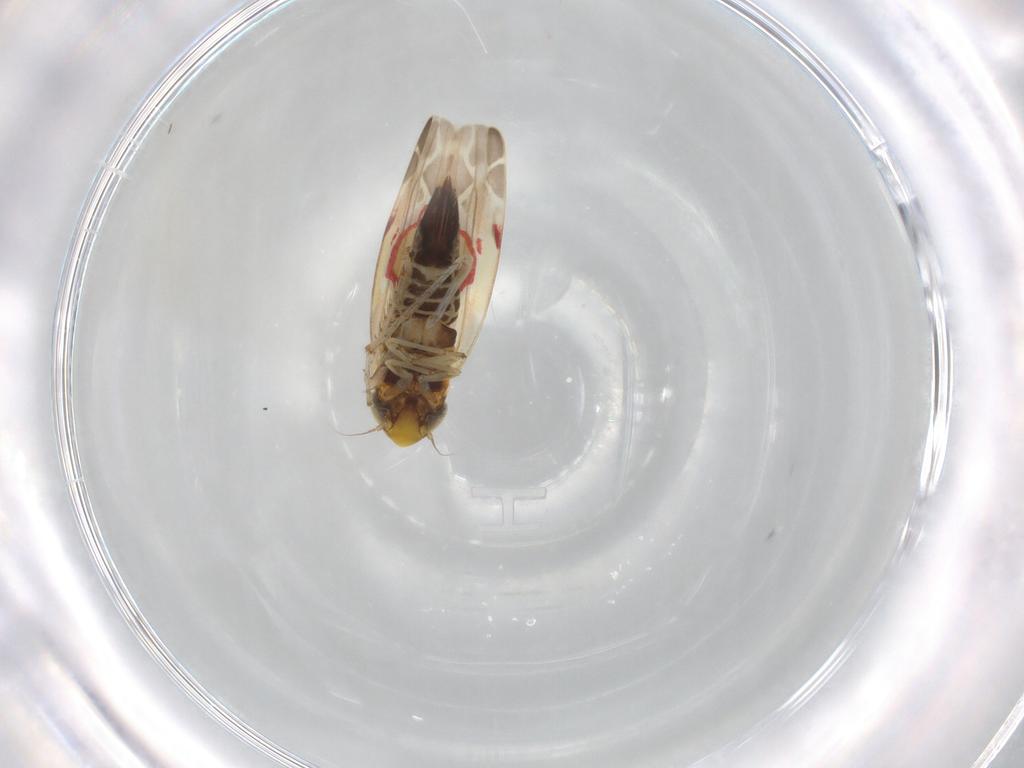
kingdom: Animalia
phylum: Arthropoda
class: Insecta
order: Hemiptera
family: Cicadellidae
